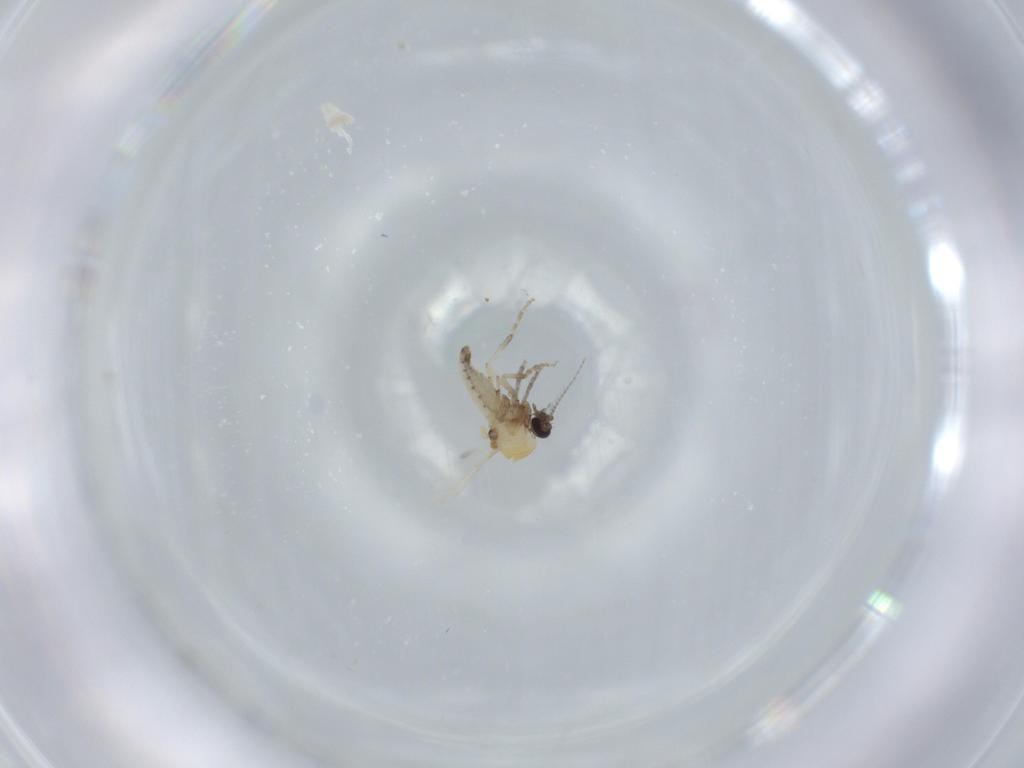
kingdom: Animalia
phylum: Arthropoda
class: Insecta
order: Diptera
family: Ceratopogonidae
